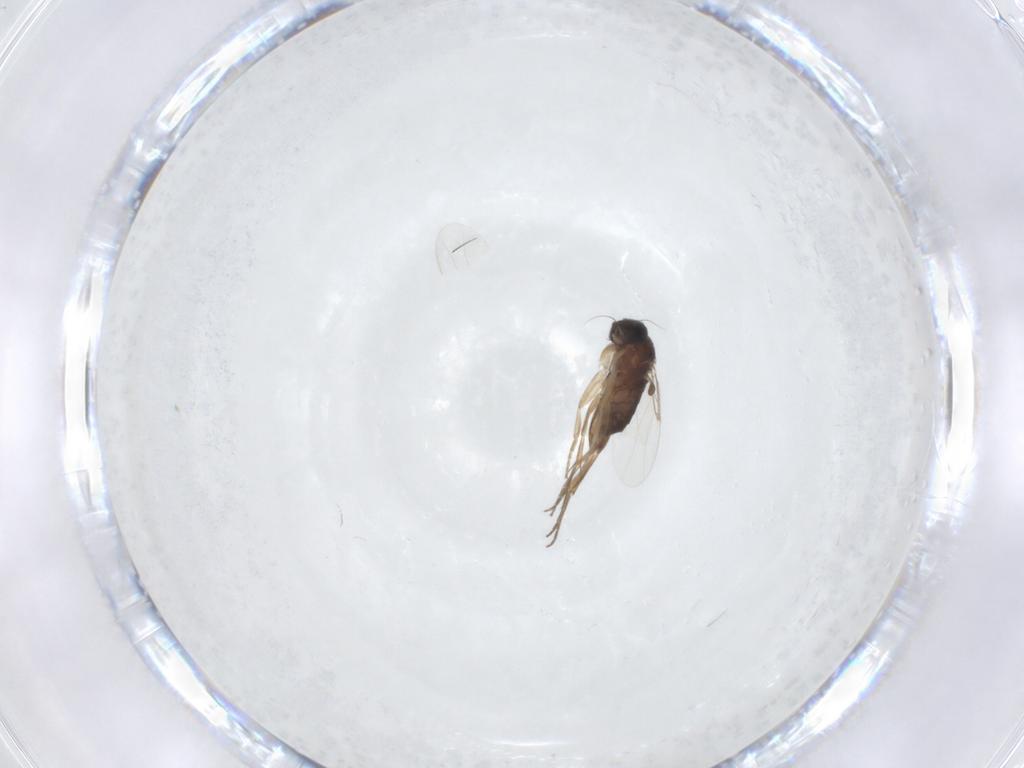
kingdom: Animalia
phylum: Arthropoda
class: Insecta
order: Diptera
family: Phoridae
